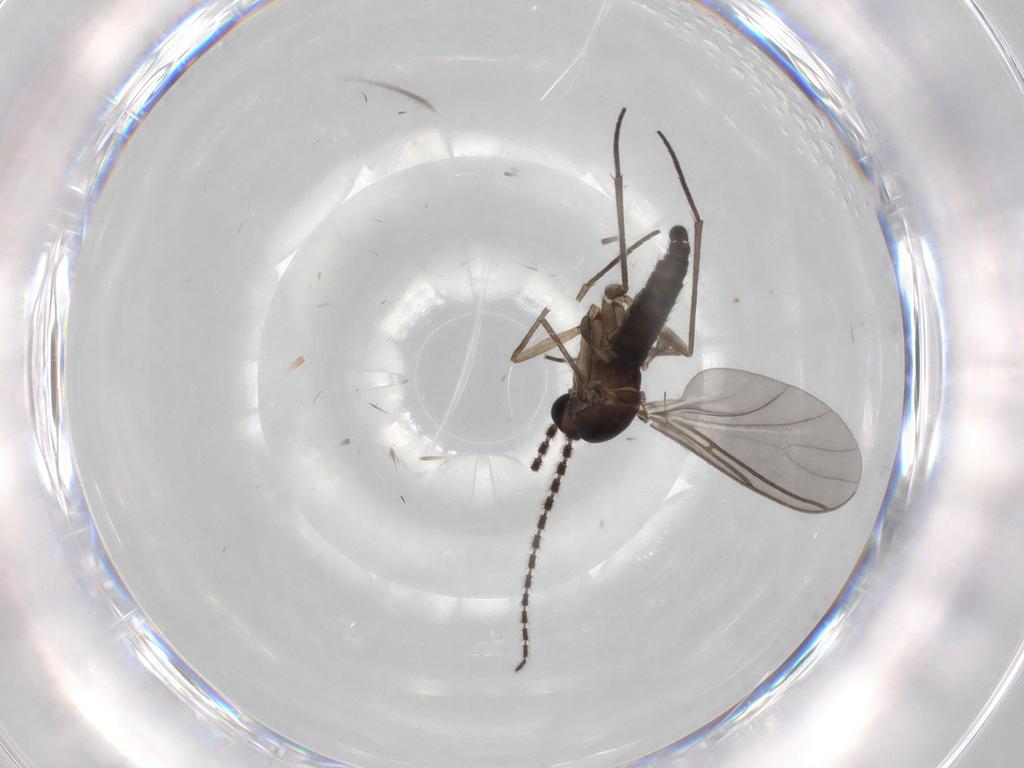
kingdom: Animalia
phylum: Arthropoda
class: Insecta
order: Diptera
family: Sciaridae
